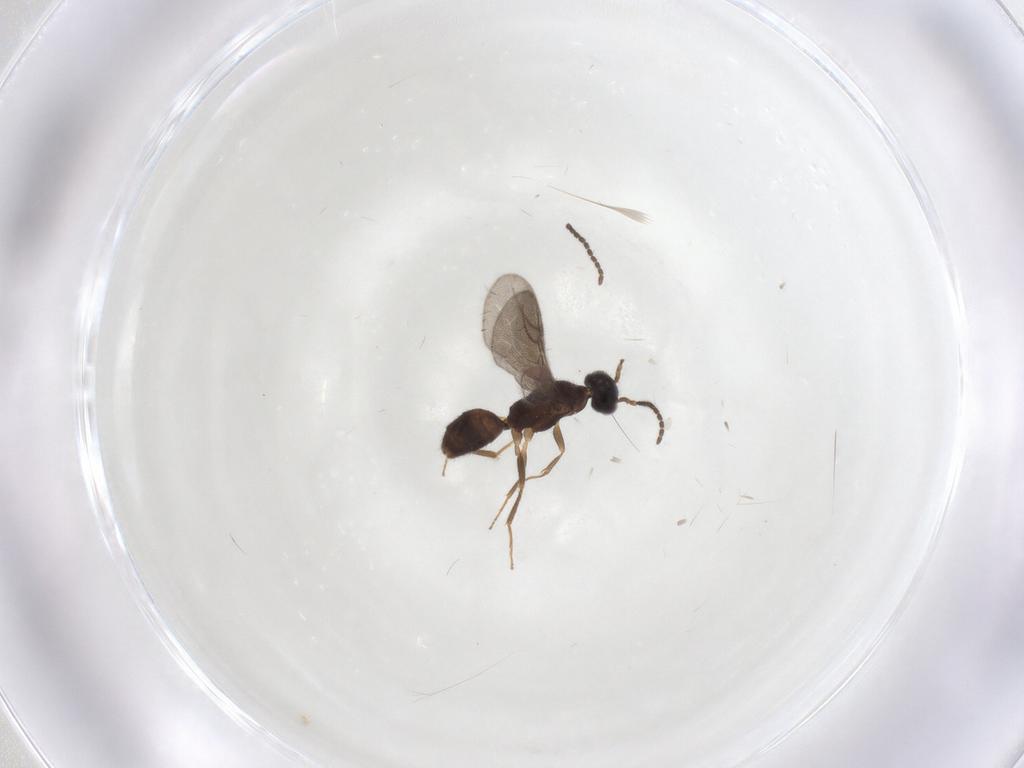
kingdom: Animalia
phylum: Arthropoda
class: Insecta
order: Hymenoptera
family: Bethylidae
